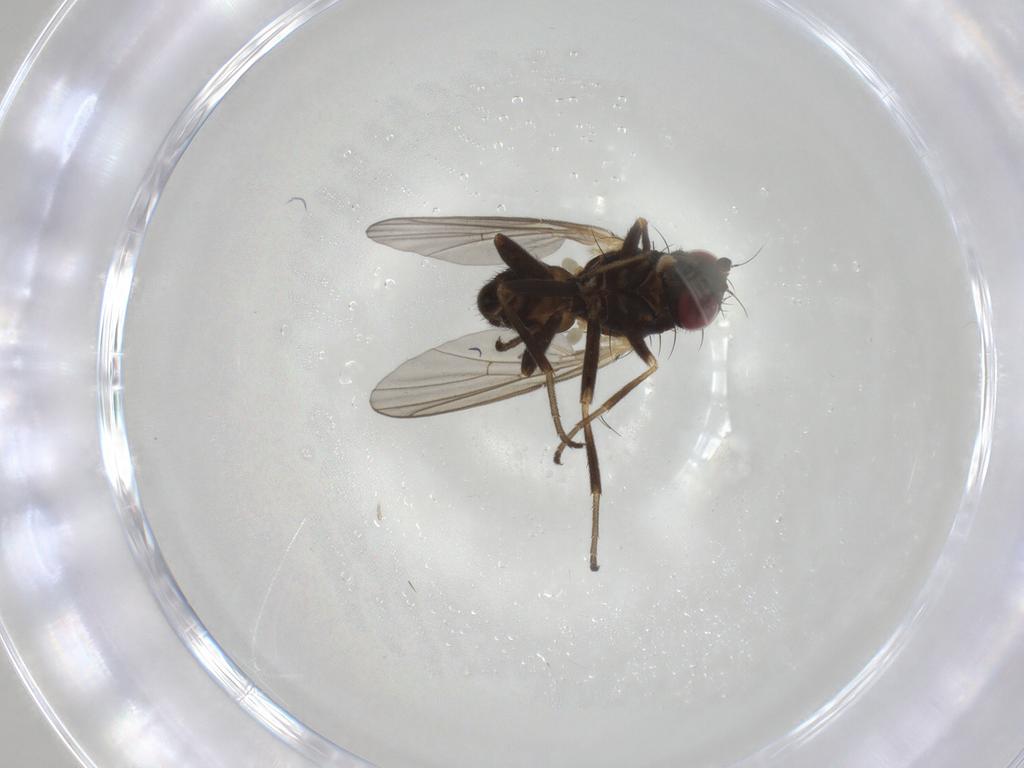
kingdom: Animalia
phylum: Arthropoda
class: Insecta
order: Diptera
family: Agromyzidae
